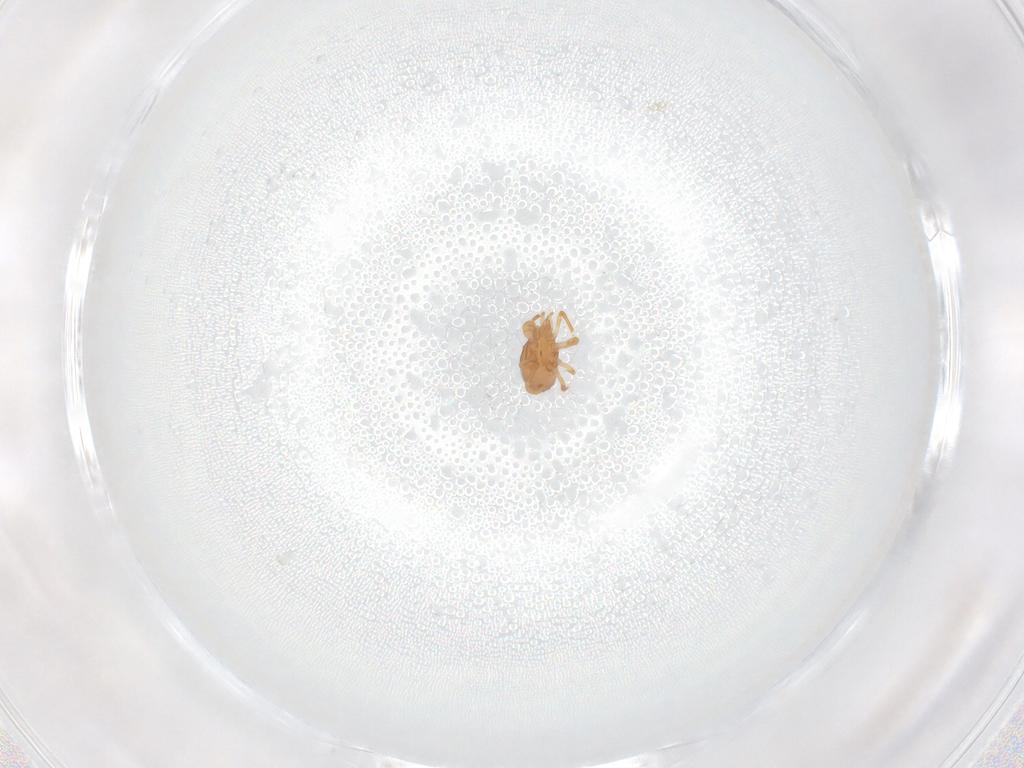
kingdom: Animalia
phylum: Arthropoda
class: Arachnida
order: Mesostigmata
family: Parasitidae
